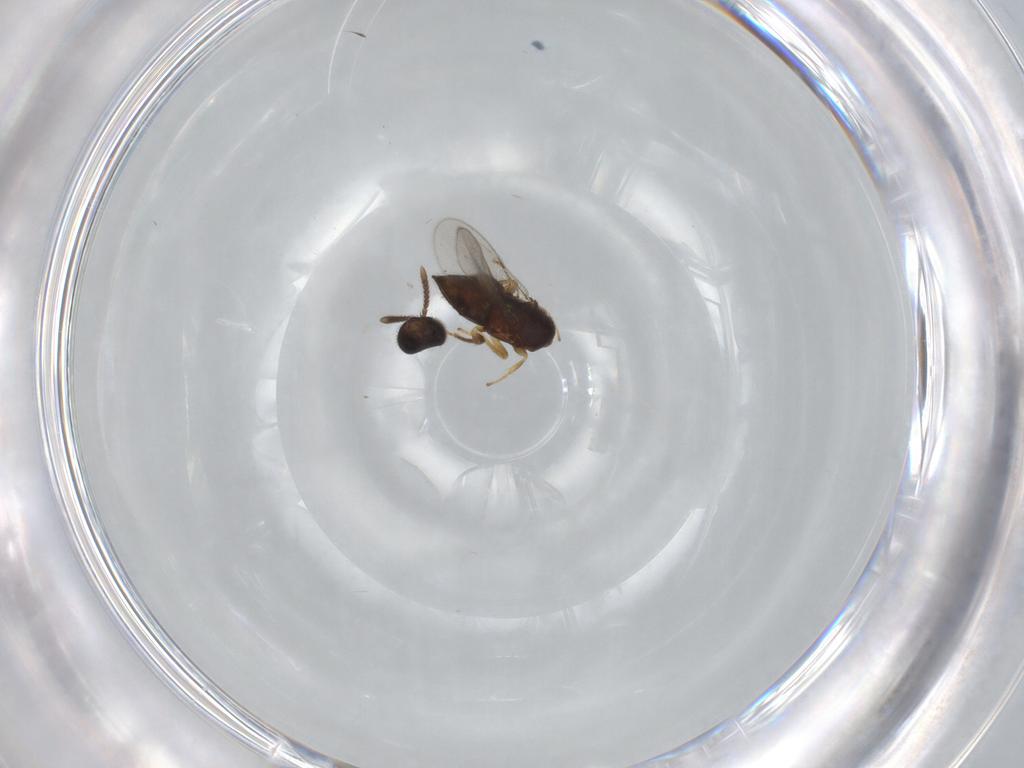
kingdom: Animalia
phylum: Arthropoda
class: Insecta
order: Hymenoptera
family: Figitidae
